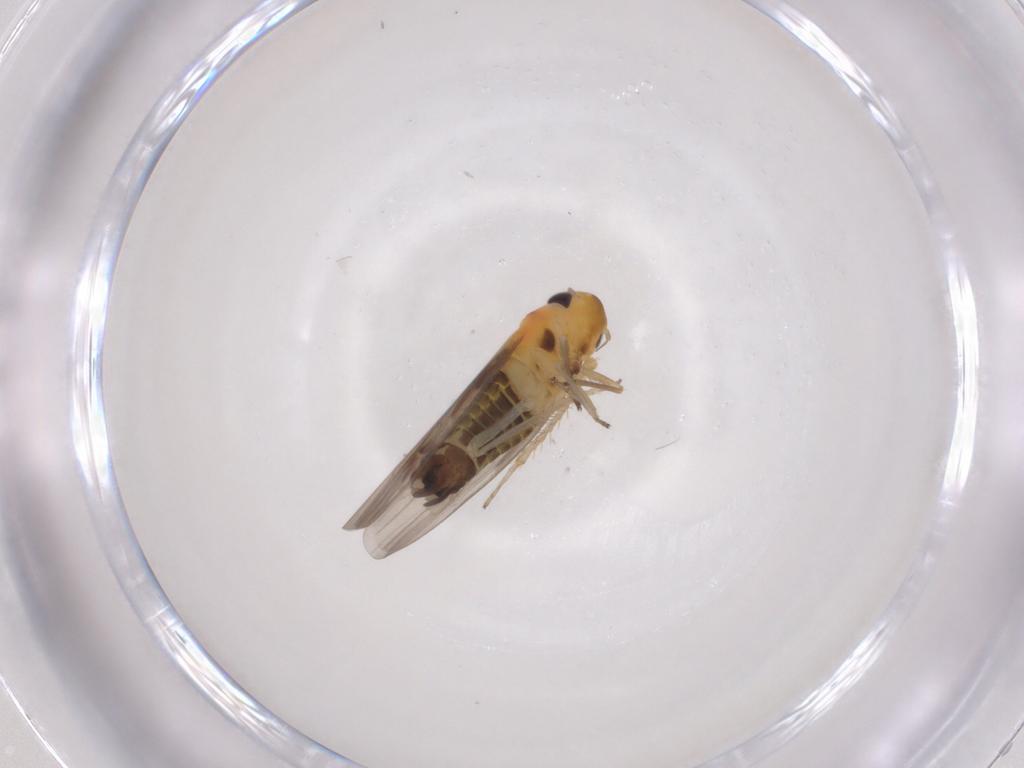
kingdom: Animalia
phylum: Arthropoda
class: Insecta
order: Hemiptera
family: Cicadellidae
